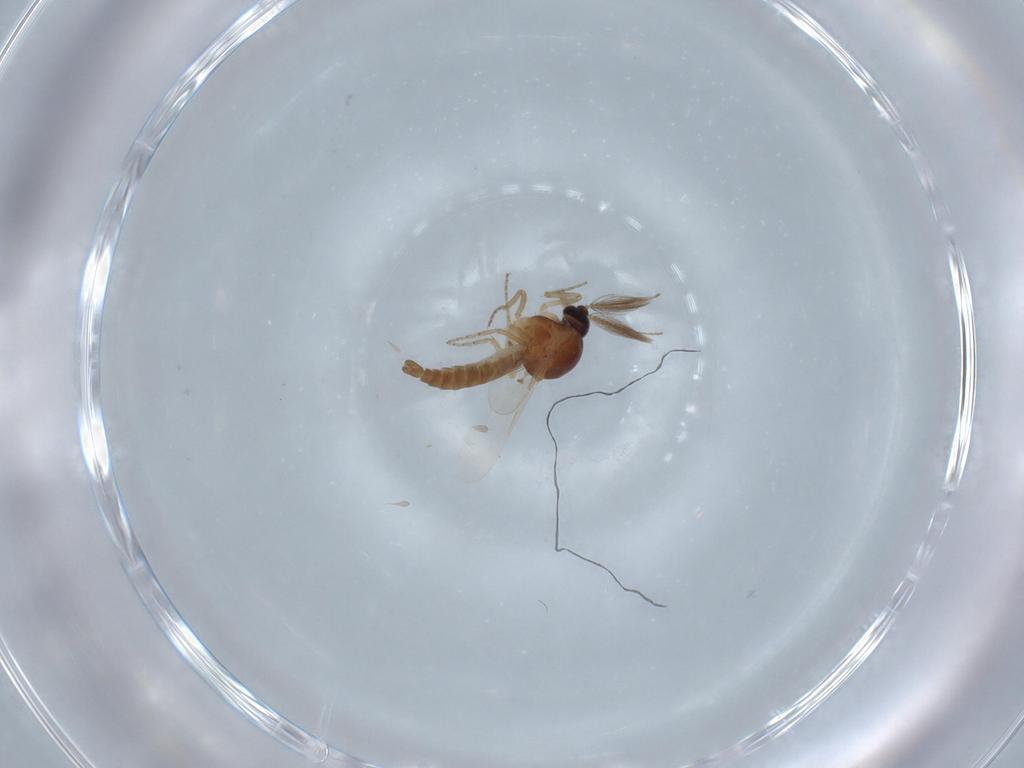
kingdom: Animalia
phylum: Arthropoda
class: Insecta
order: Diptera
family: Ceratopogonidae
